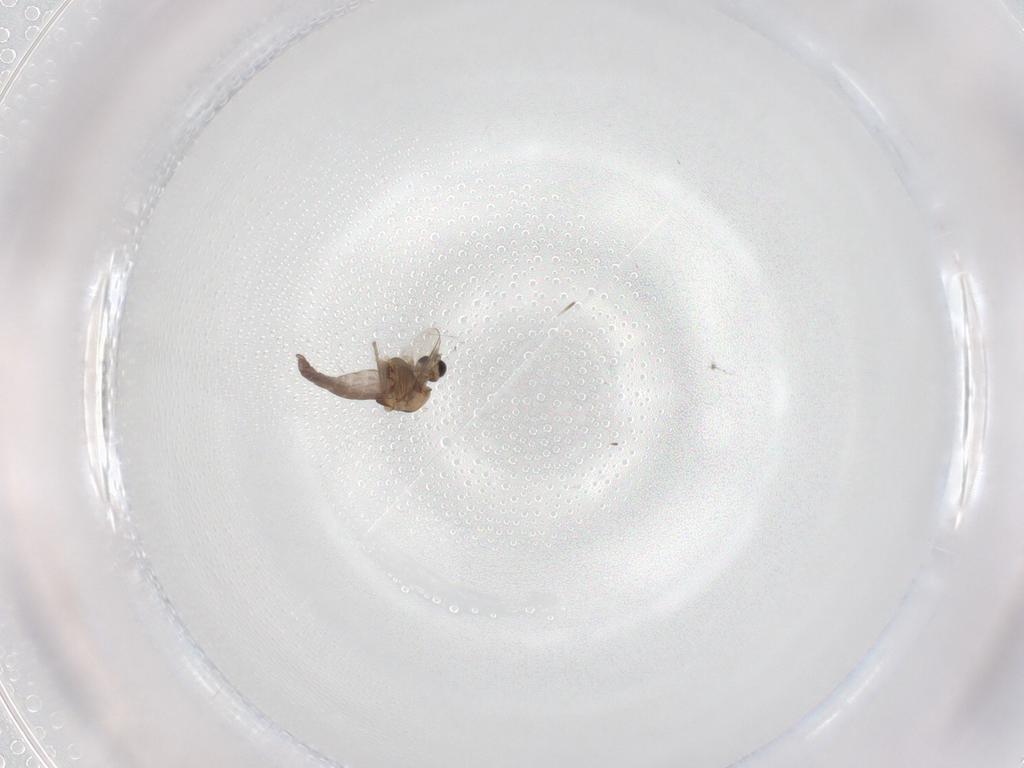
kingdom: Animalia
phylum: Arthropoda
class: Insecta
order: Diptera
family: Chironomidae
